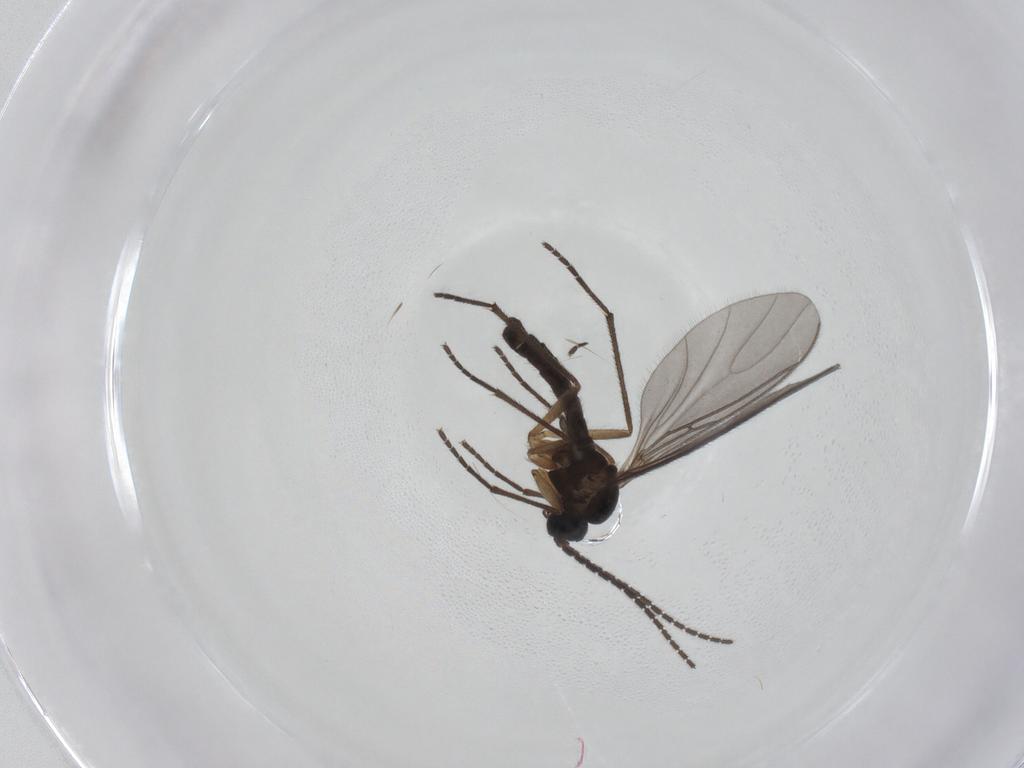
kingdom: Animalia
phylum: Arthropoda
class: Insecta
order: Diptera
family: Sciaridae
